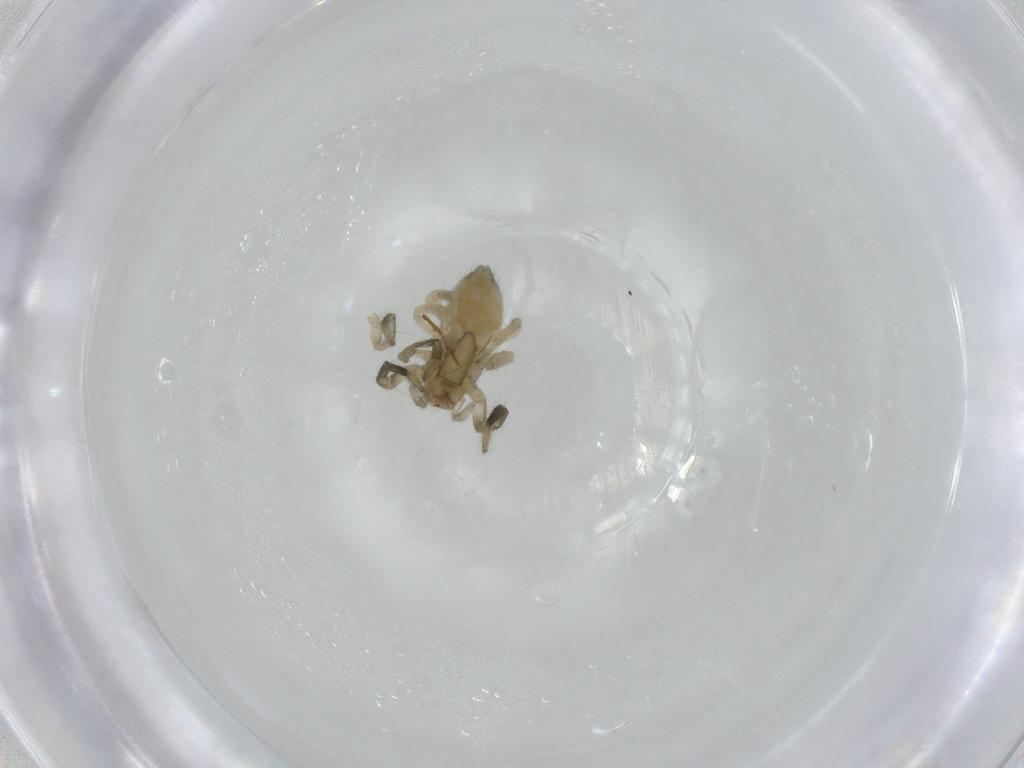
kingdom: Animalia
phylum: Arthropoda
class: Arachnida
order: Araneae
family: Trachelidae
